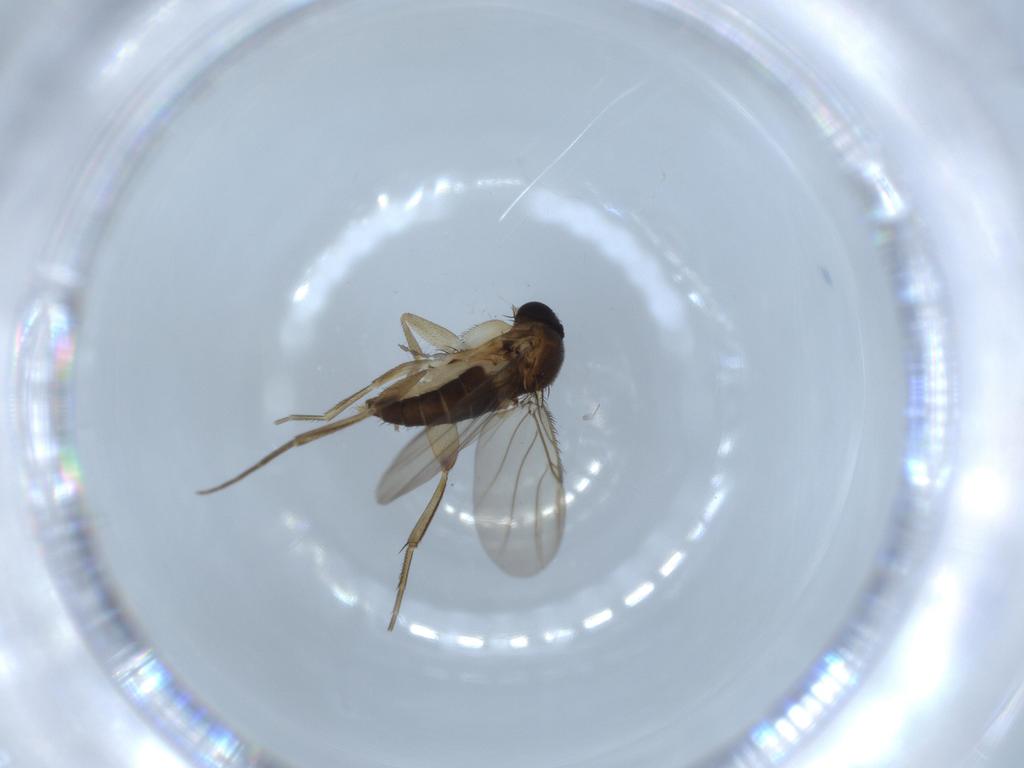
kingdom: Animalia
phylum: Arthropoda
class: Insecta
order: Diptera
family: Phoridae
